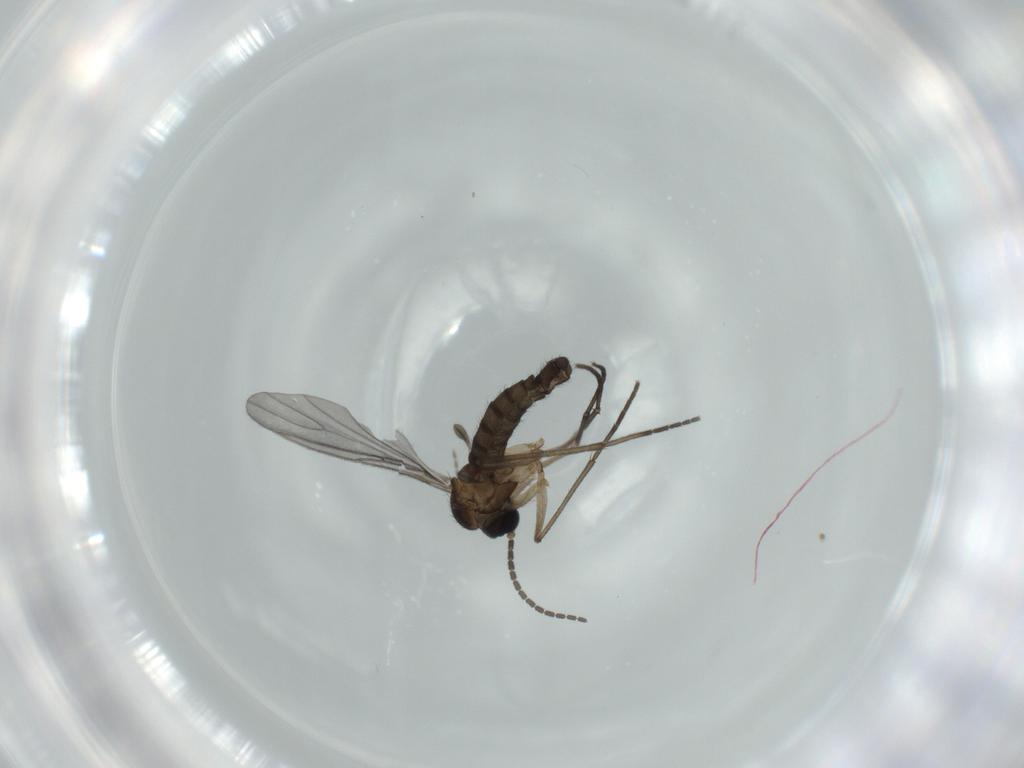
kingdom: Animalia
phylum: Arthropoda
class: Insecta
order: Diptera
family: Sciaridae
